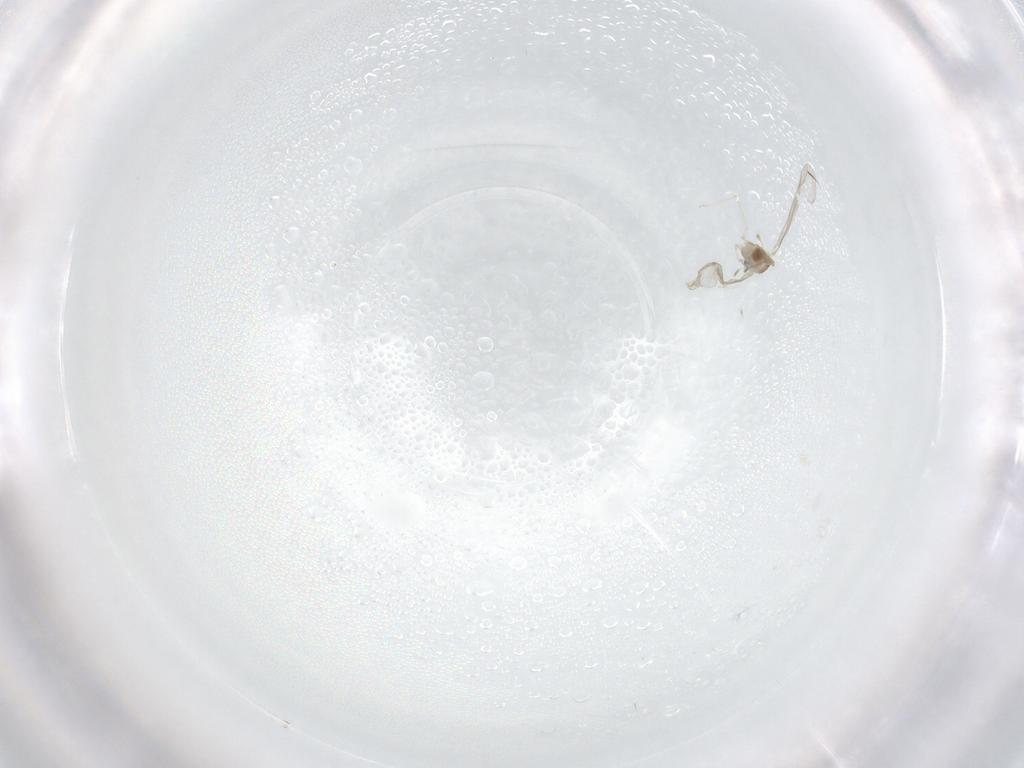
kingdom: Animalia
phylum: Arthropoda
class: Insecta
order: Diptera
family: Cecidomyiidae
